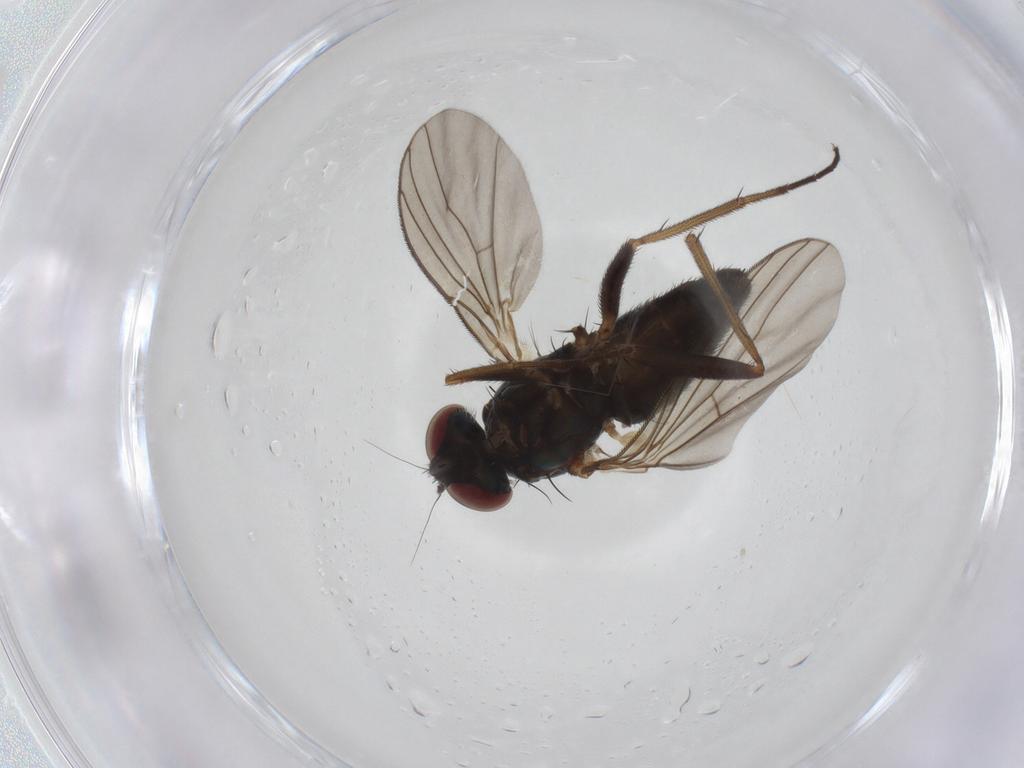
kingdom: Animalia
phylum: Arthropoda
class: Insecta
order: Diptera
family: Dolichopodidae
